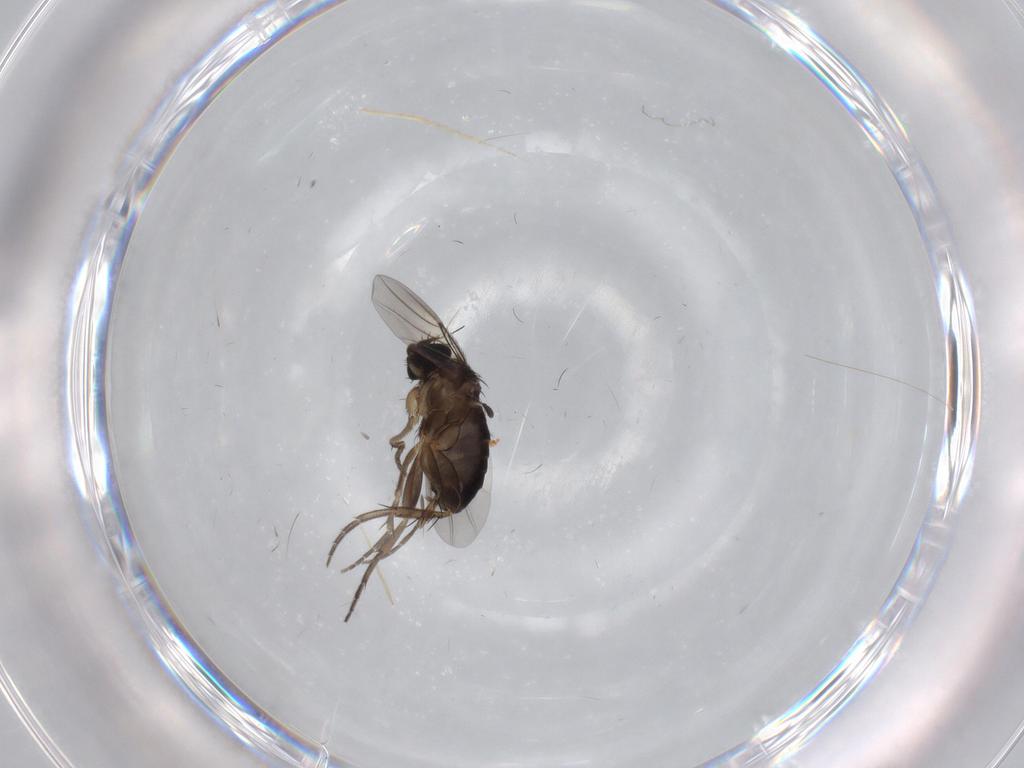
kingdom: Animalia
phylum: Arthropoda
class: Insecta
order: Diptera
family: Phoridae
